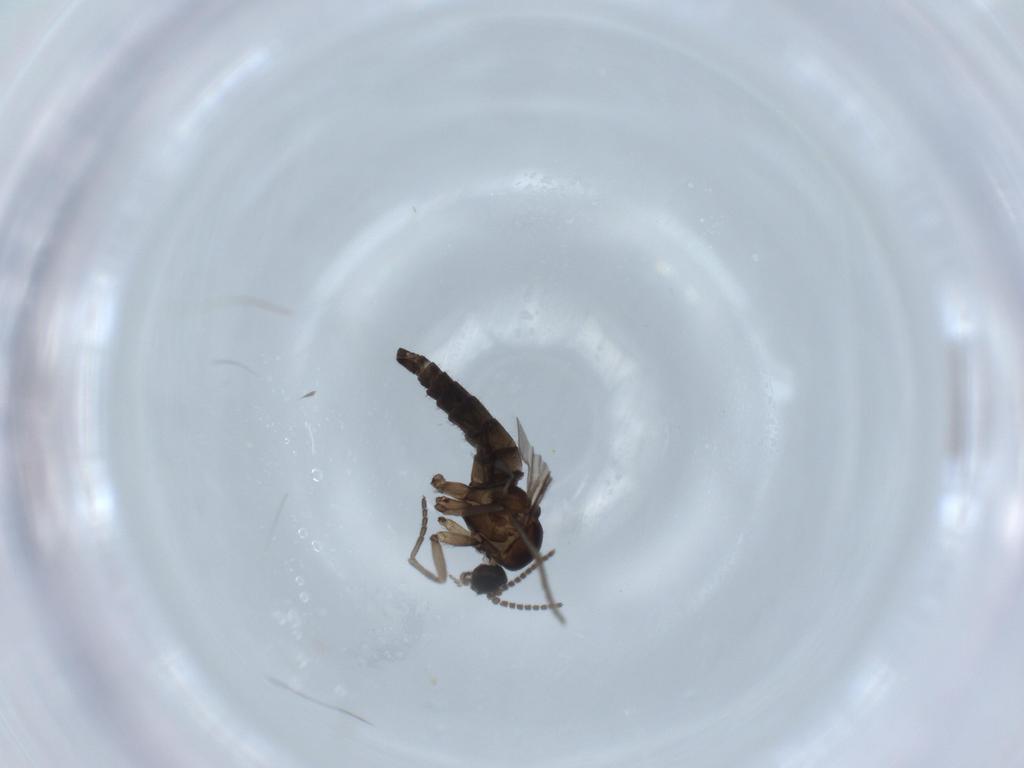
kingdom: Animalia
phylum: Arthropoda
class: Insecta
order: Diptera
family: Sciaridae
